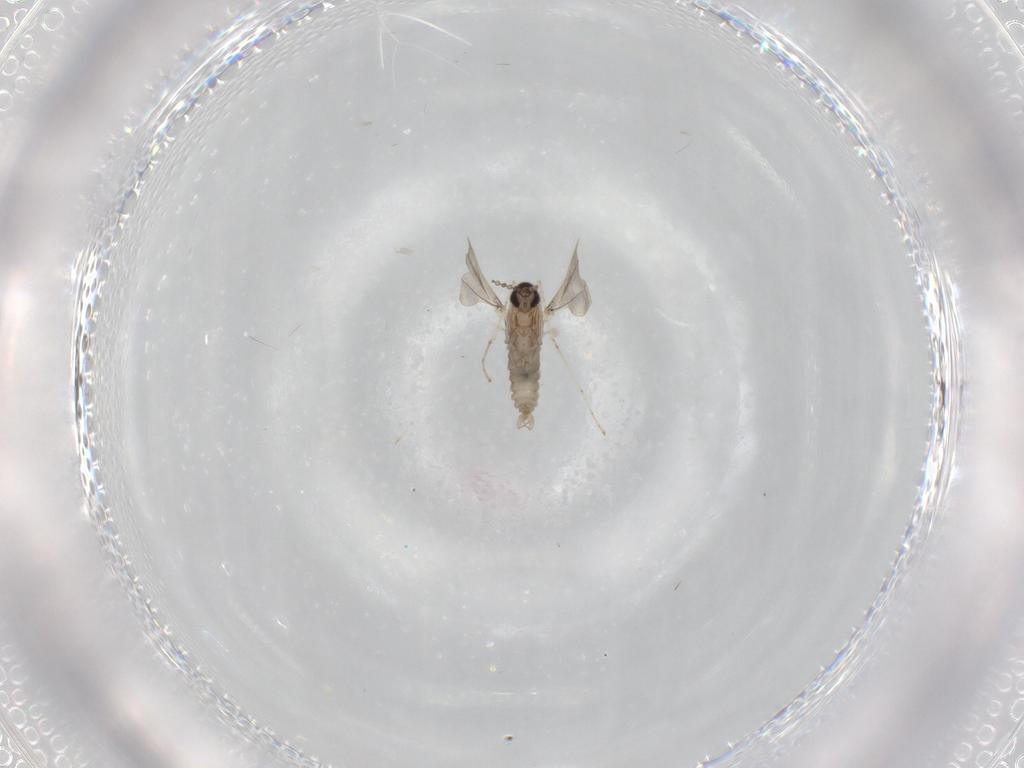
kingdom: Animalia
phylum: Arthropoda
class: Insecta
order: Diptera
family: Cecidomyiidae
